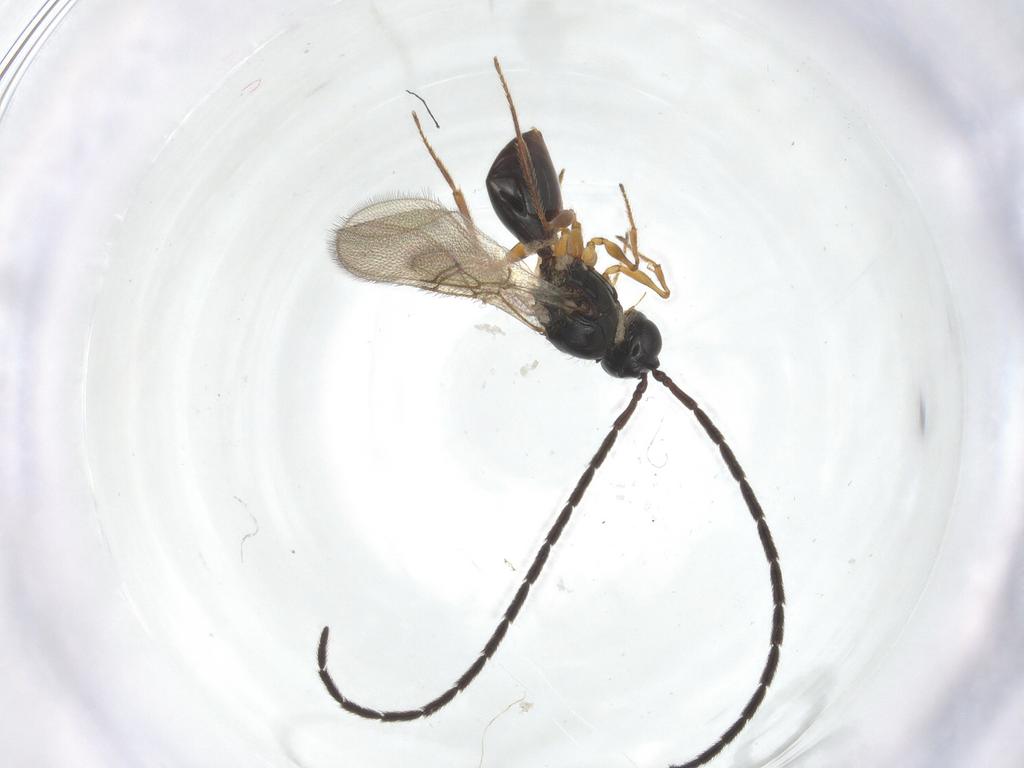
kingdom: Animalia
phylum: Arthropoda
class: Insecta
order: Hymenoptera
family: Figitidae
